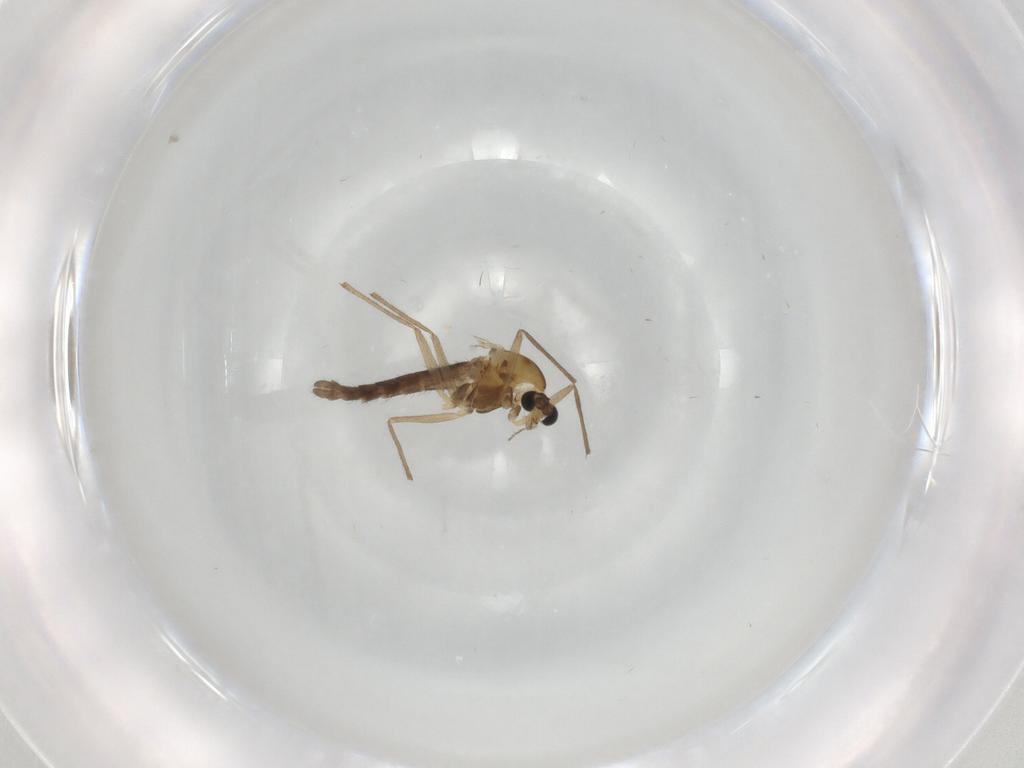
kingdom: Animalia
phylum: Arthropoda
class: Insecta
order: Diptera
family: Chironomidae
